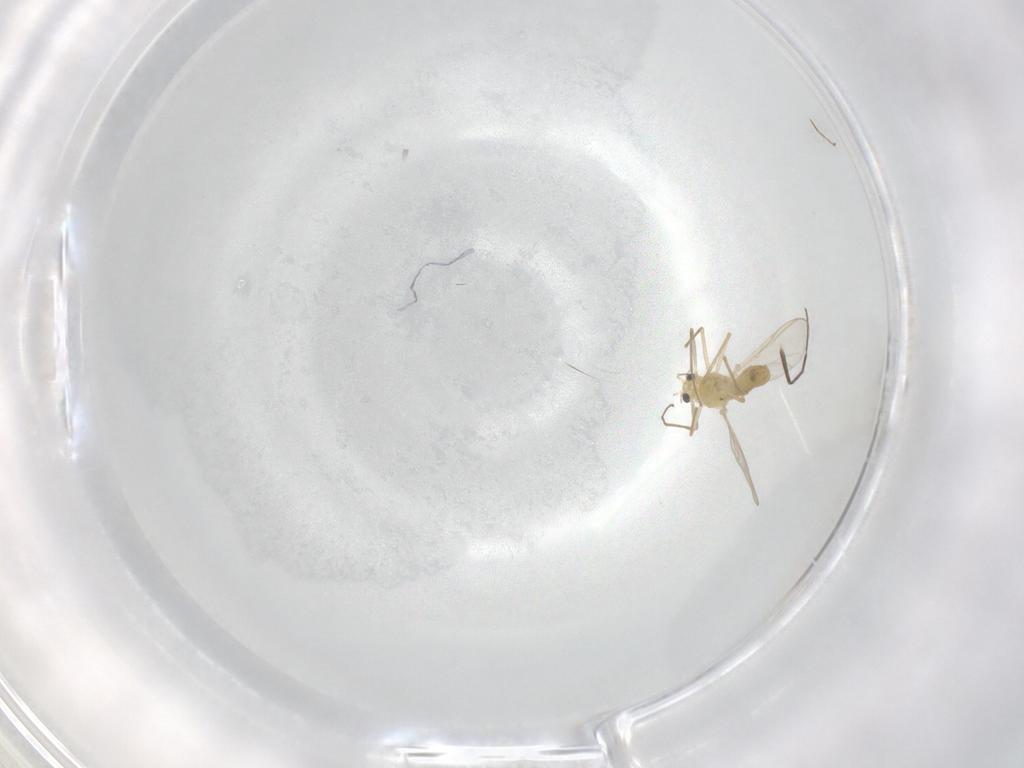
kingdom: Animalia
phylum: Arthropoda
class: Insecta
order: Diptera
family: Chironomidae
